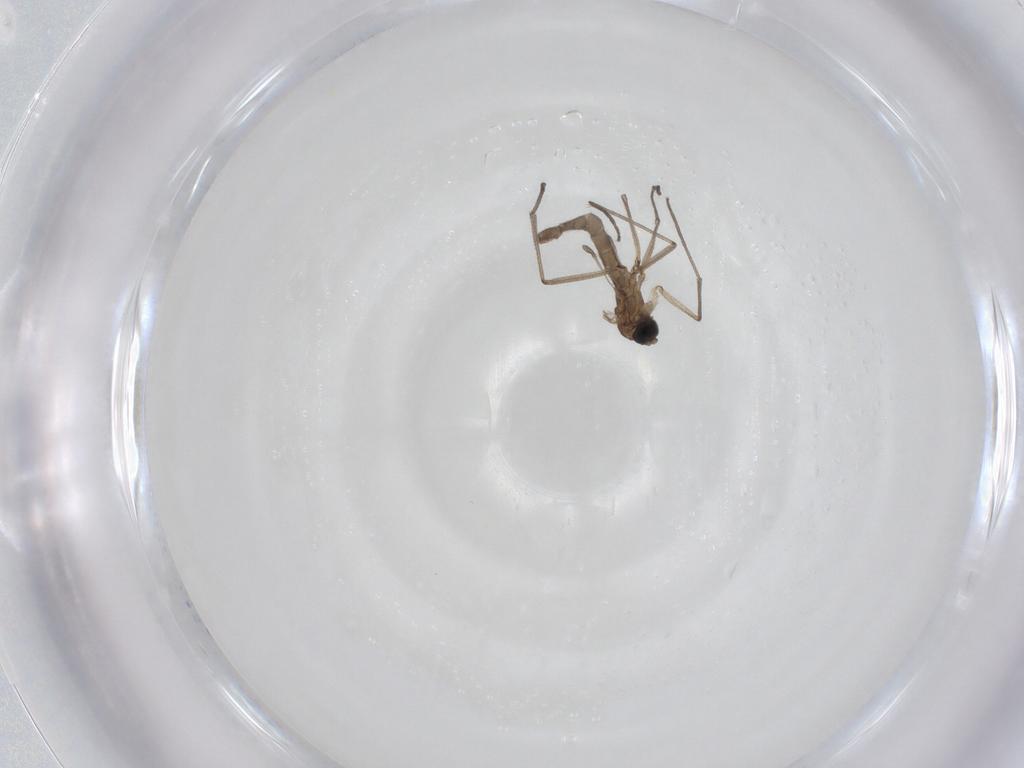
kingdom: Animalia
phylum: Arthropoda
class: Insecta
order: Diptera
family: Sciaridae
